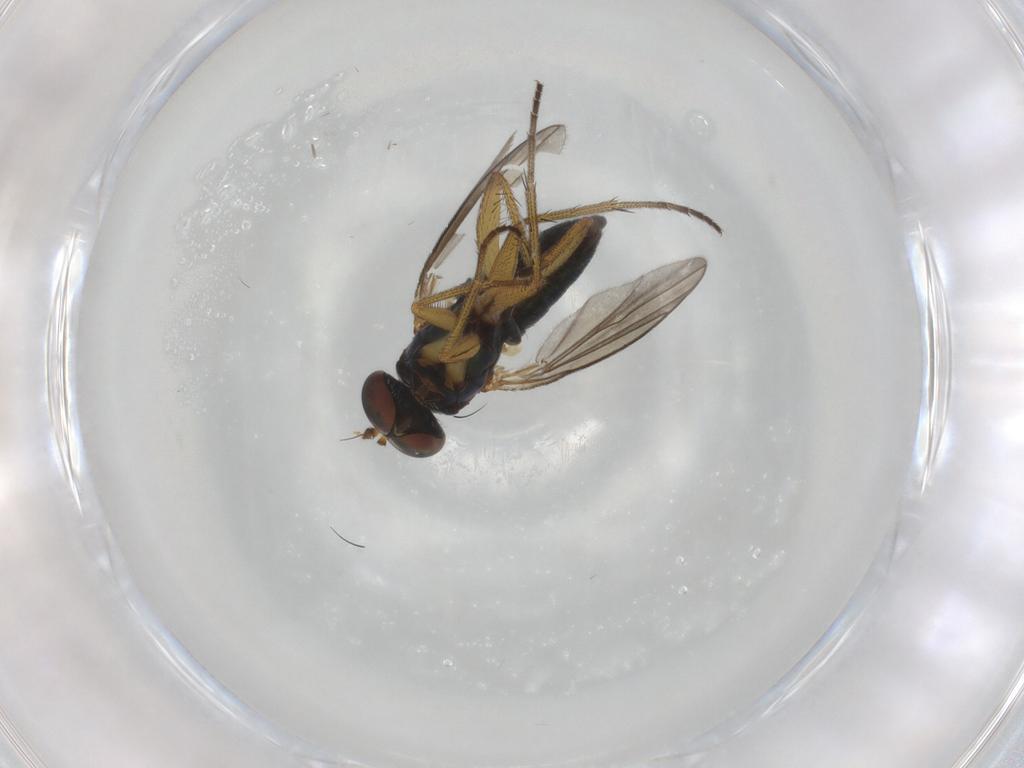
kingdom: Animalia
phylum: Arthropoda
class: Insecta
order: Diptera
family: Dolichopodidae
